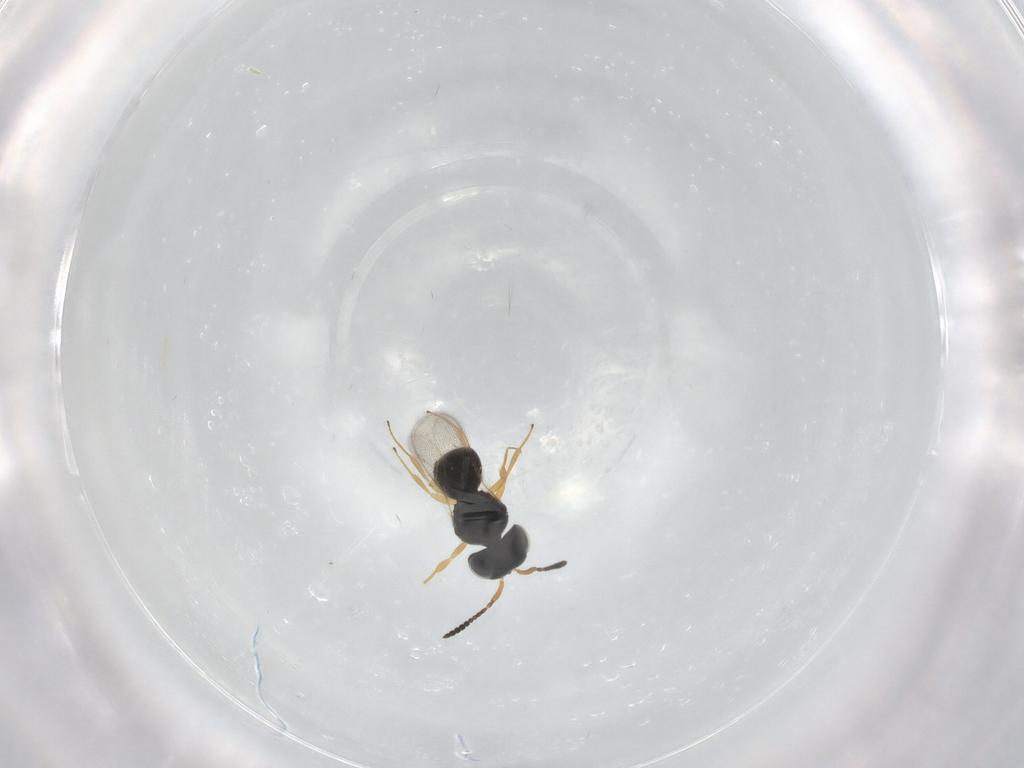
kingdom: Animalia
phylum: Arthropoda
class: Insecta
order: Hymenoptera
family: Scelionidae
